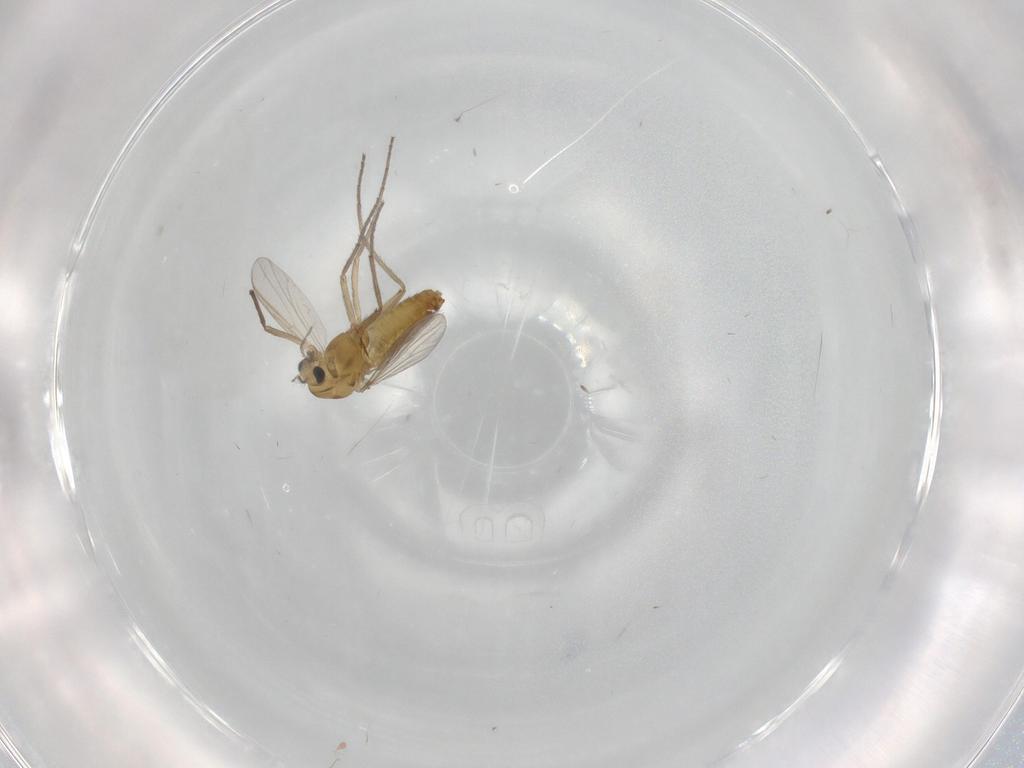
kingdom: Animalia
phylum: Arthropoda
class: Insecta
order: Diptera
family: Chironomidae
